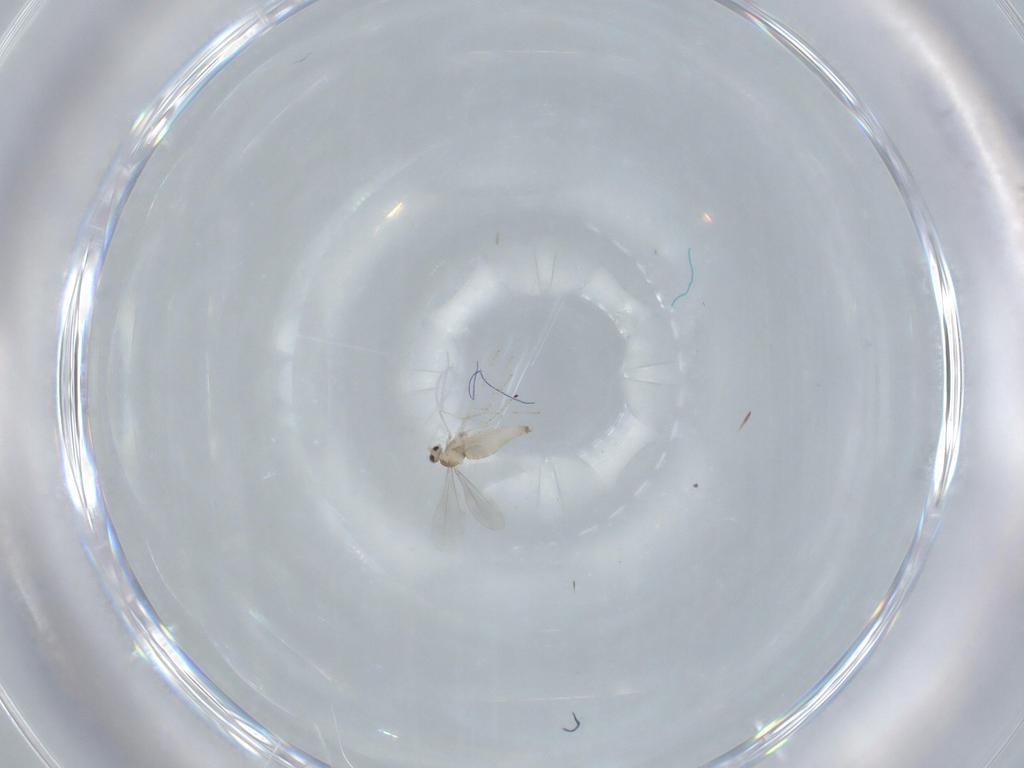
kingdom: Animalia
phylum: Arthropoda
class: Insecta
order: Diptera
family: Cecidomyiidae
